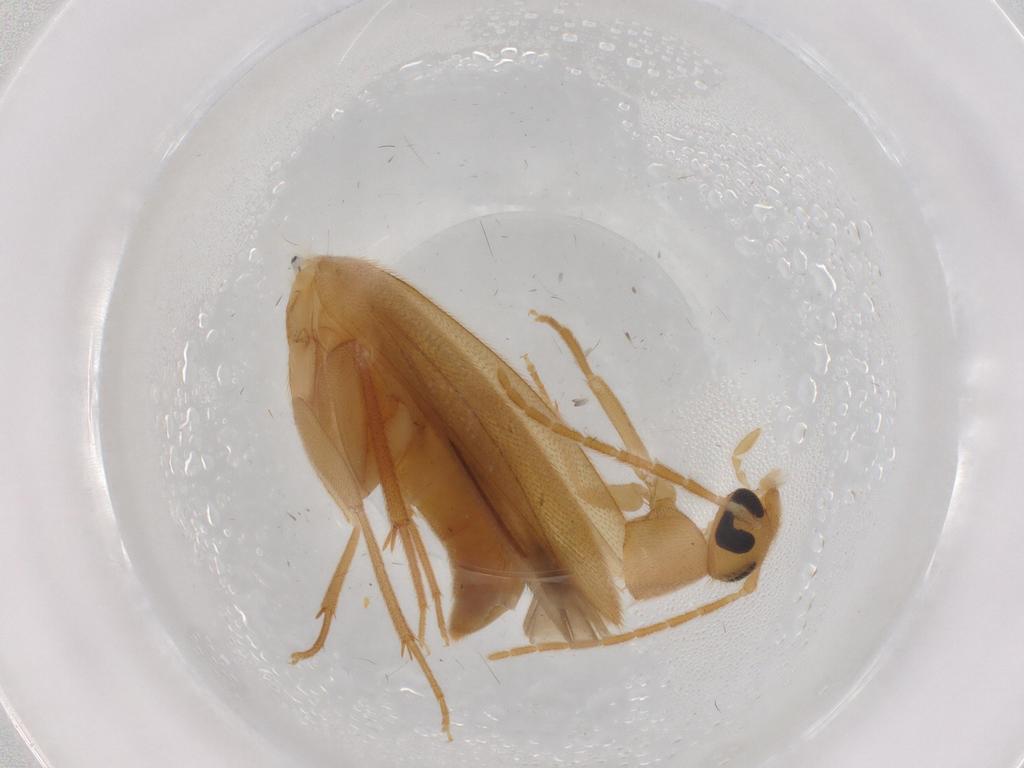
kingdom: Animalia
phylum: Arthropoda
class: Insecta
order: Coleoptera
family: Scraptiidae
